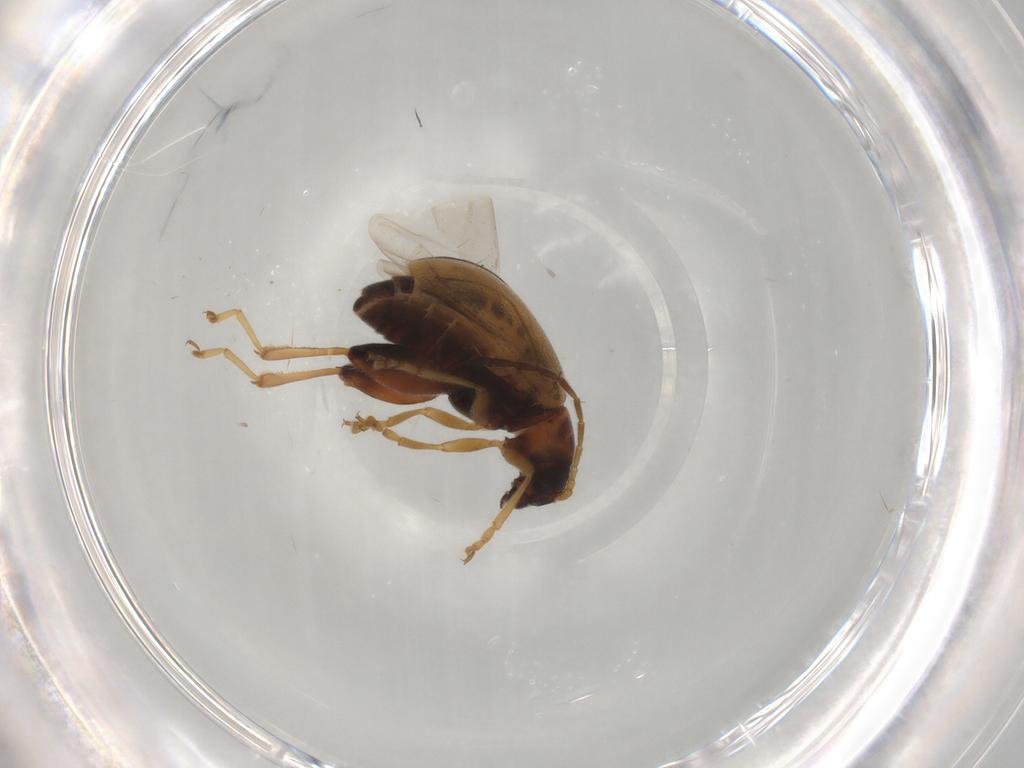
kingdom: Animalia
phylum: Arthropoda
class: Insecta
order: Coleoptera
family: Chrysomelidae
